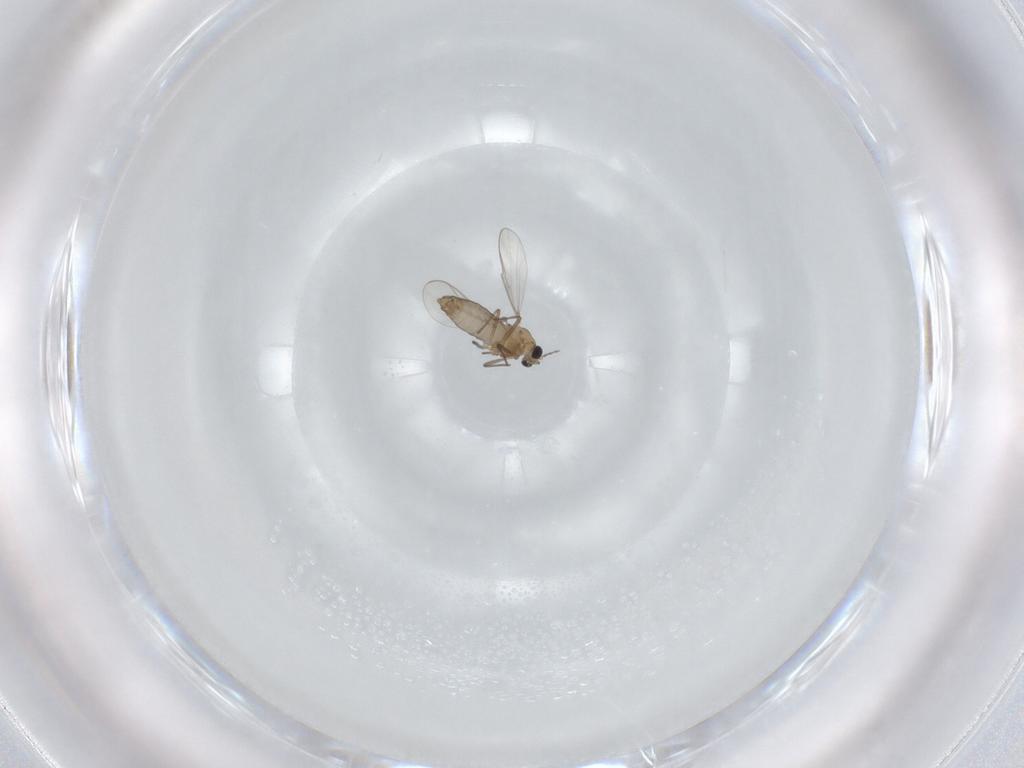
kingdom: Animalia
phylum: Arthropoda
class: Insecta
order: Diptera
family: Chironomidae
